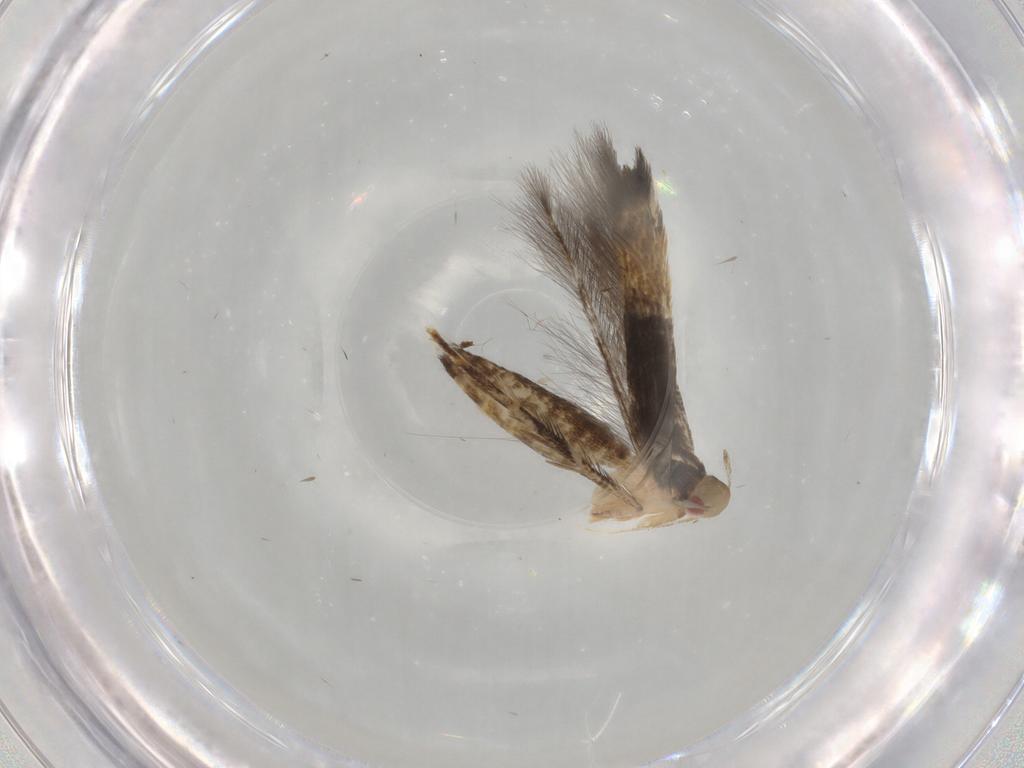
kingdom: Animalia
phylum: Arthropoda
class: Insecta
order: Lepidoptera
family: Cosmopterigidae
